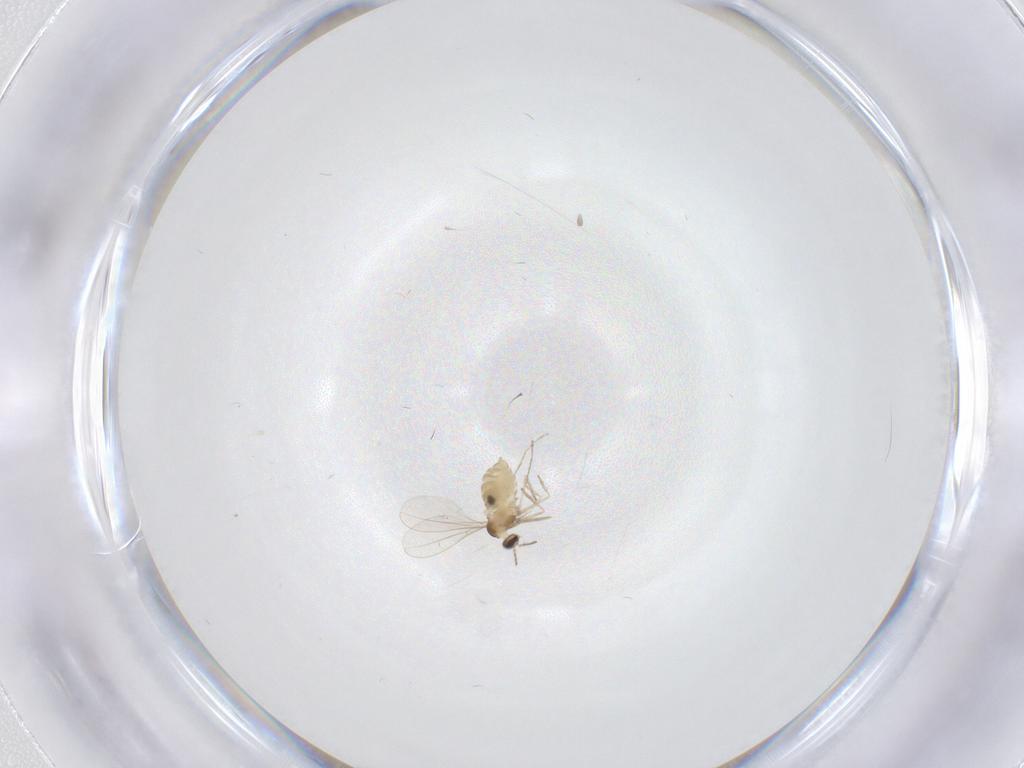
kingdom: Animalia
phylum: Arthropoda
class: Insecta
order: Diptera
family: Cecidomyiidae
